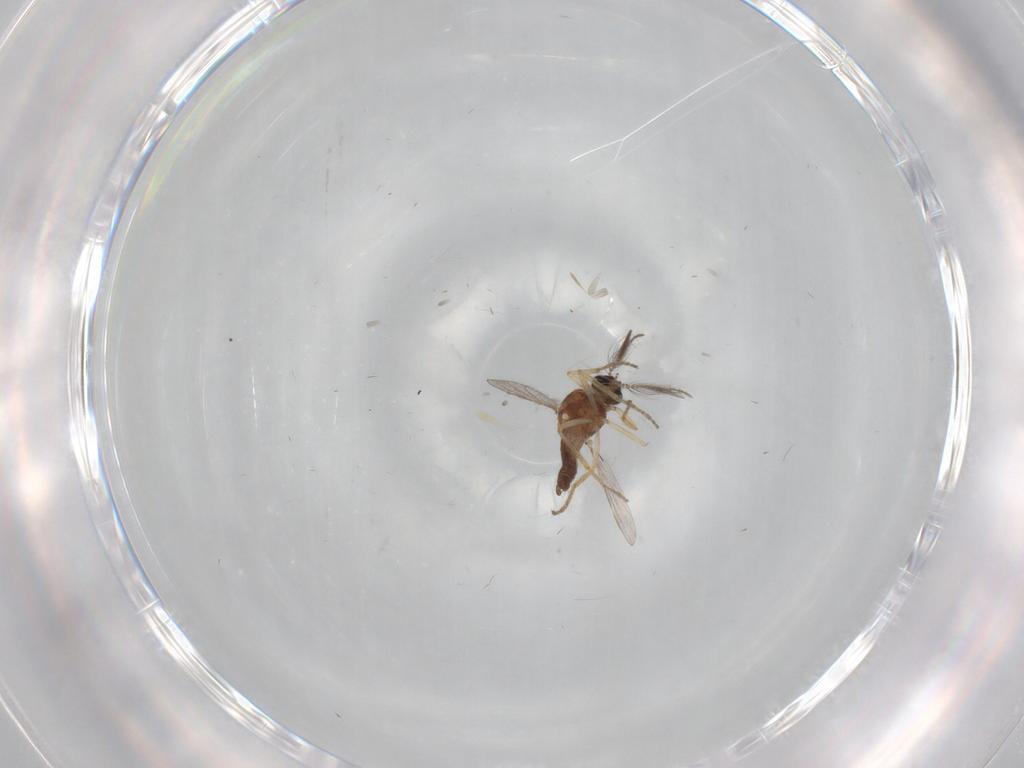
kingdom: Animalia
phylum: Arthropoda
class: Insecta
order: Diptera
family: Ceratopogonidae
